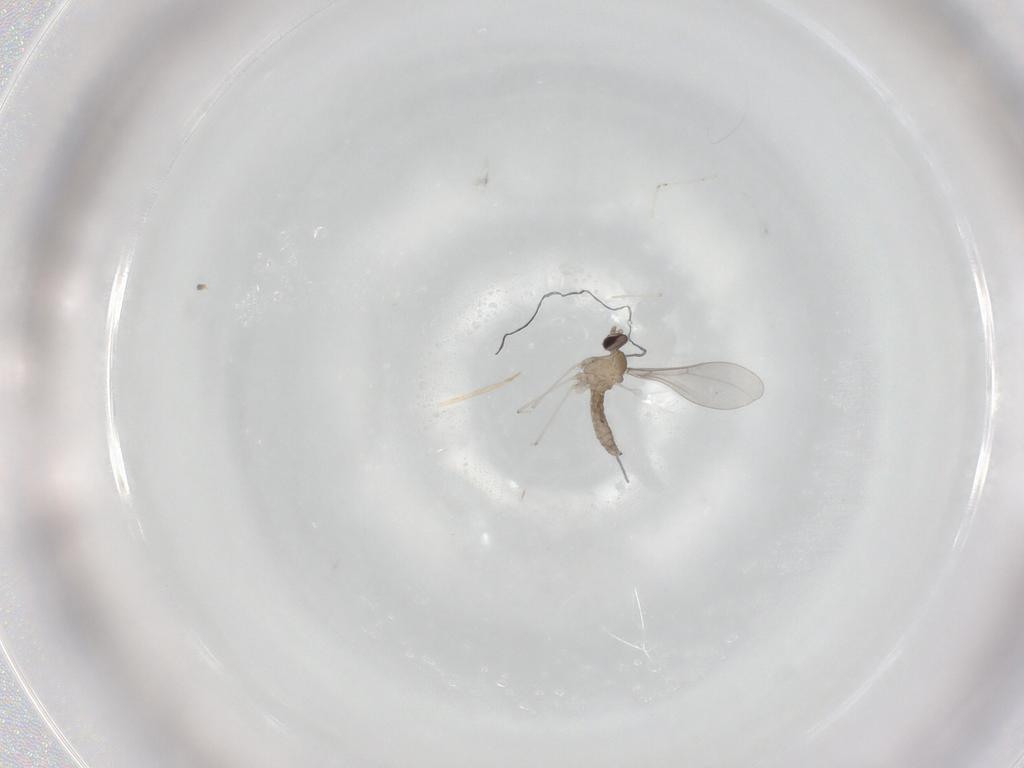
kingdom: Animalia
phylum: Arthropoda
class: Insecta
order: Diptera
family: Cecidomyiidae
